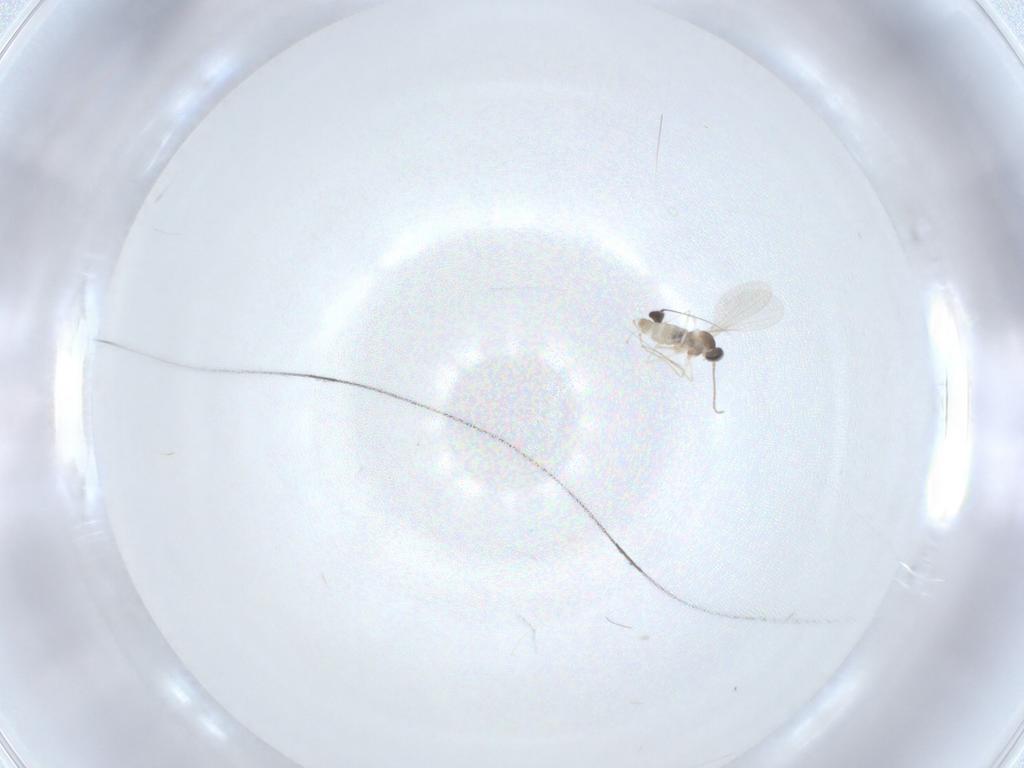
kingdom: Animalia
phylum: Arthropoda
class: Insecta
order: Diptera
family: Cecidomyiidae
